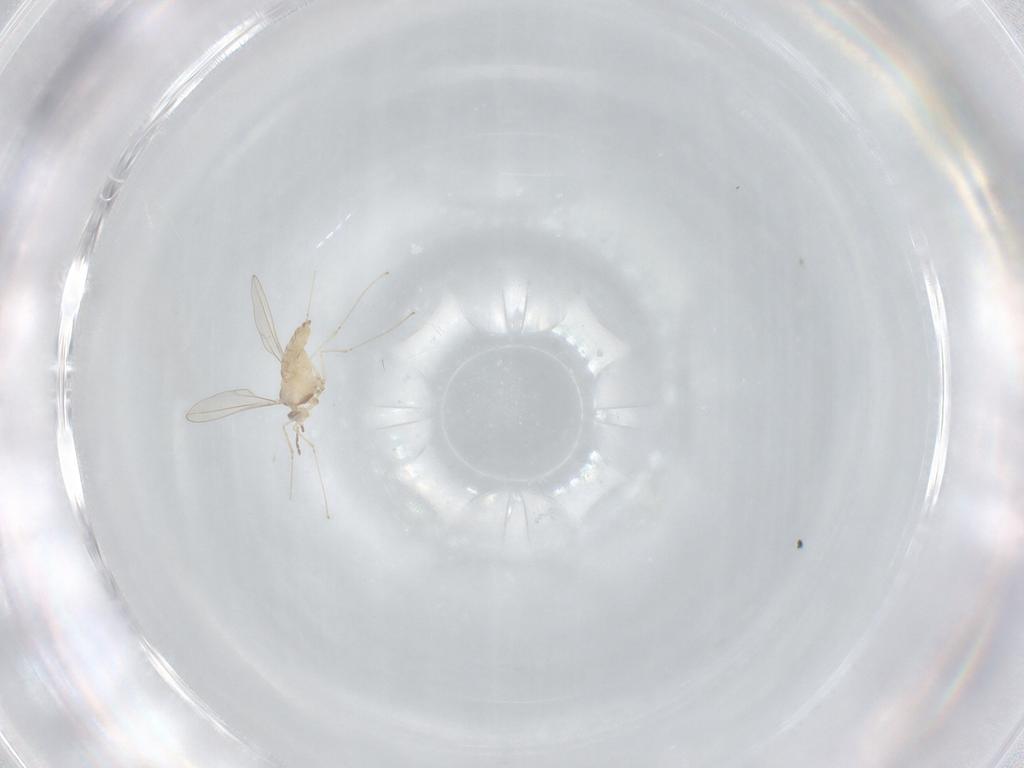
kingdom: Animalia
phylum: Arthropoda
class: Insecta
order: Diptera
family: Cecidomyiidae
